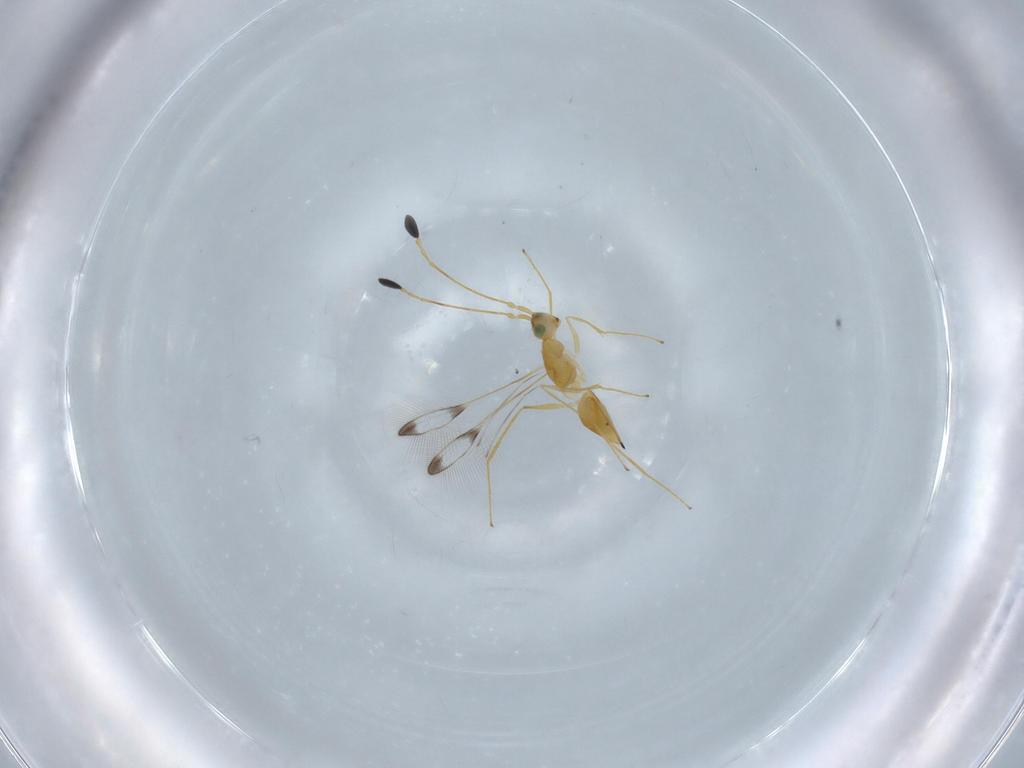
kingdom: Animalia
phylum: Arthropoda
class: Insecta
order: Hymenoptera
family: Mymaridae
